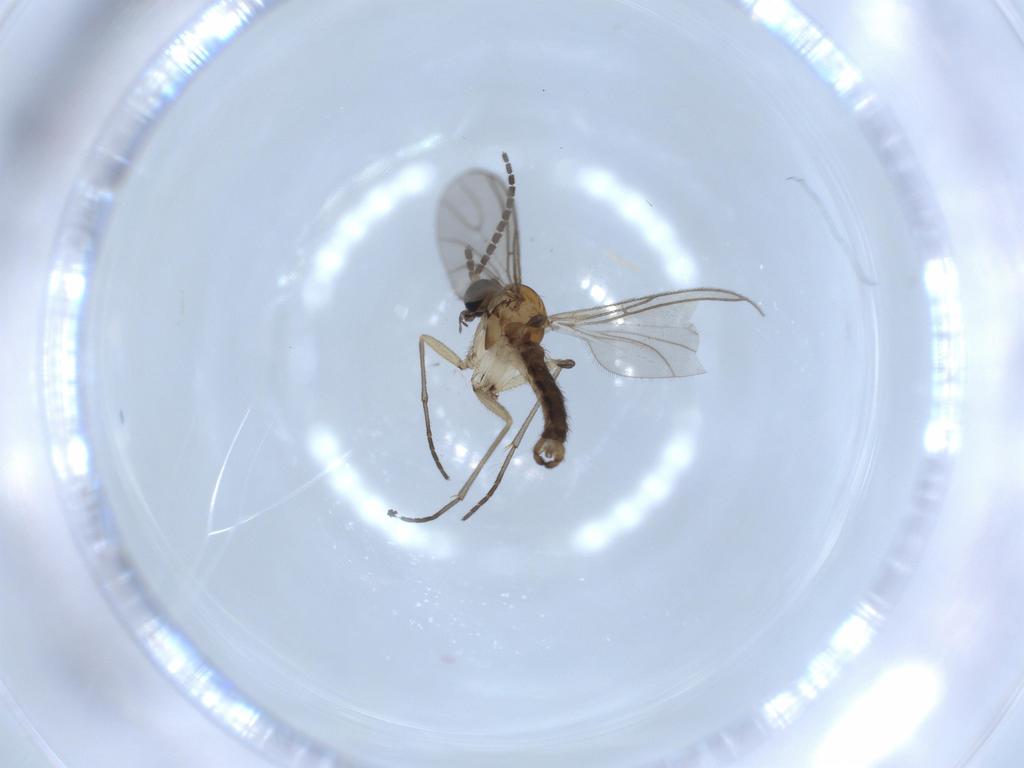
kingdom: Animalia
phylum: Arthropoda
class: Insecta
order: Diptera
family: Sciaridae
